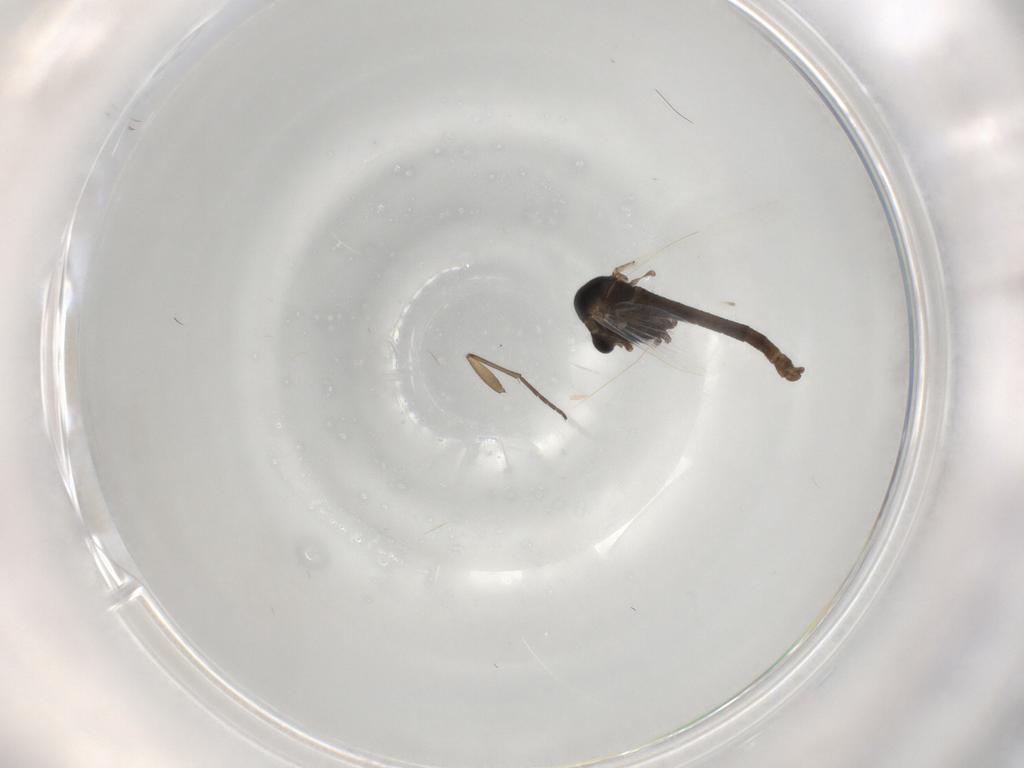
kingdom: Animalia
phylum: Arthropoda
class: Insecta
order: Diptera
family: Chironomidae
